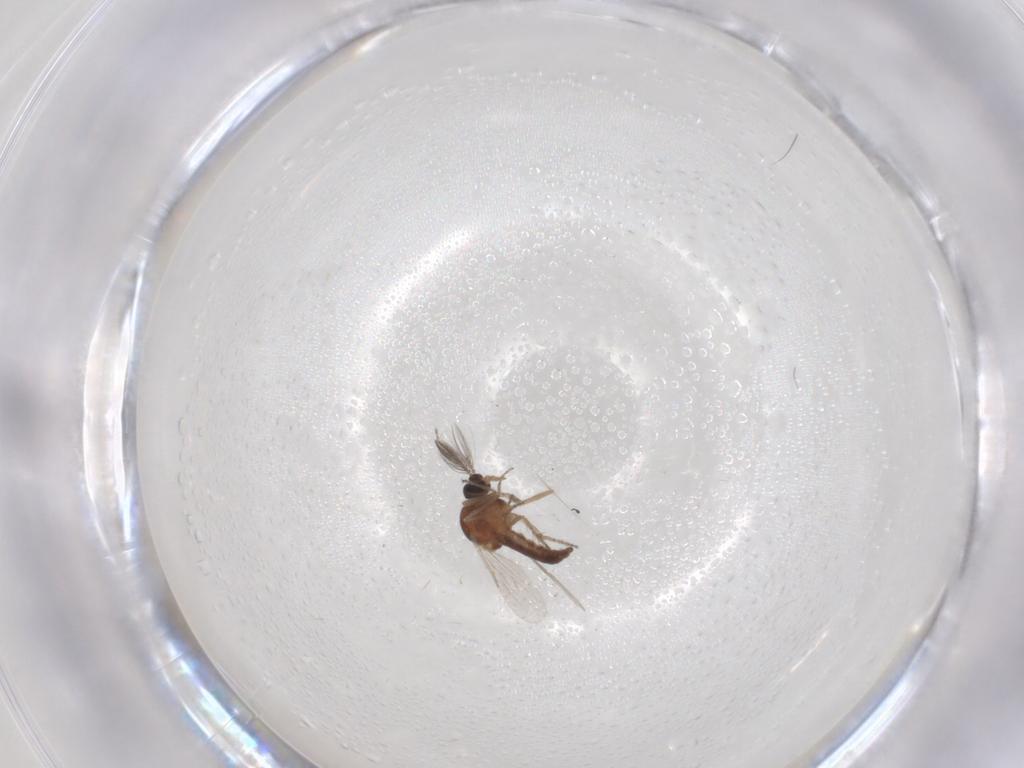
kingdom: Animalia
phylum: Arthropoda
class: Insecta
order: Diptera
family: Ceratopogonidae
